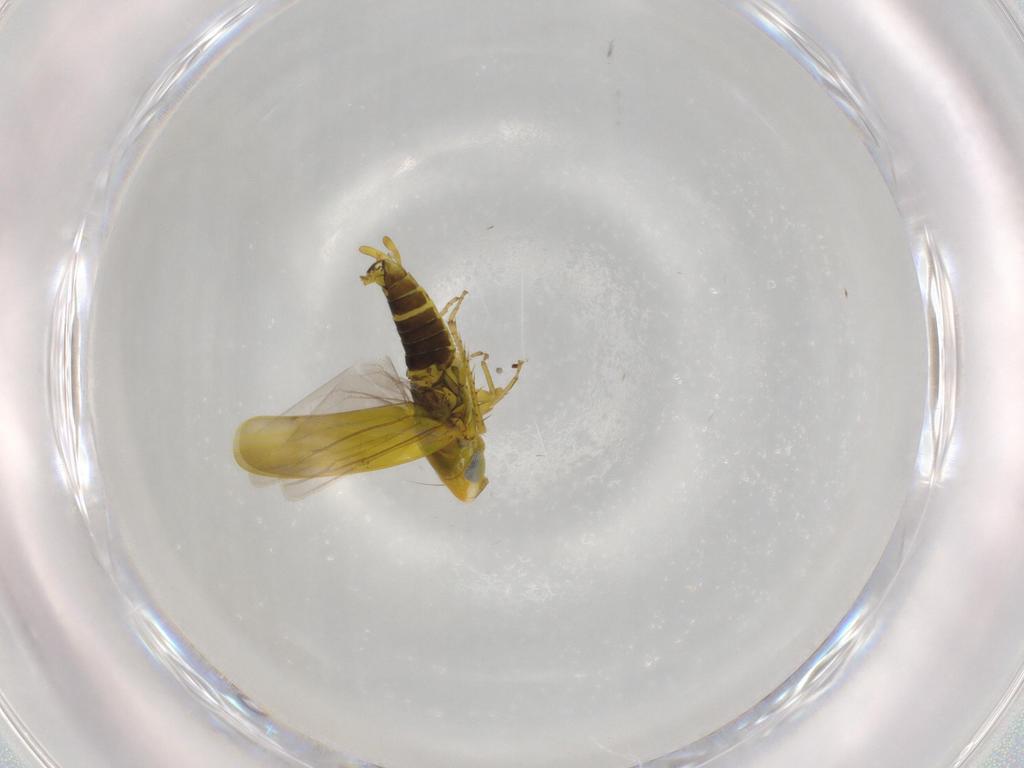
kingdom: Animalia
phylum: Arthropoda
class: Insecta
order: Hemiptera
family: Cicadellidae
